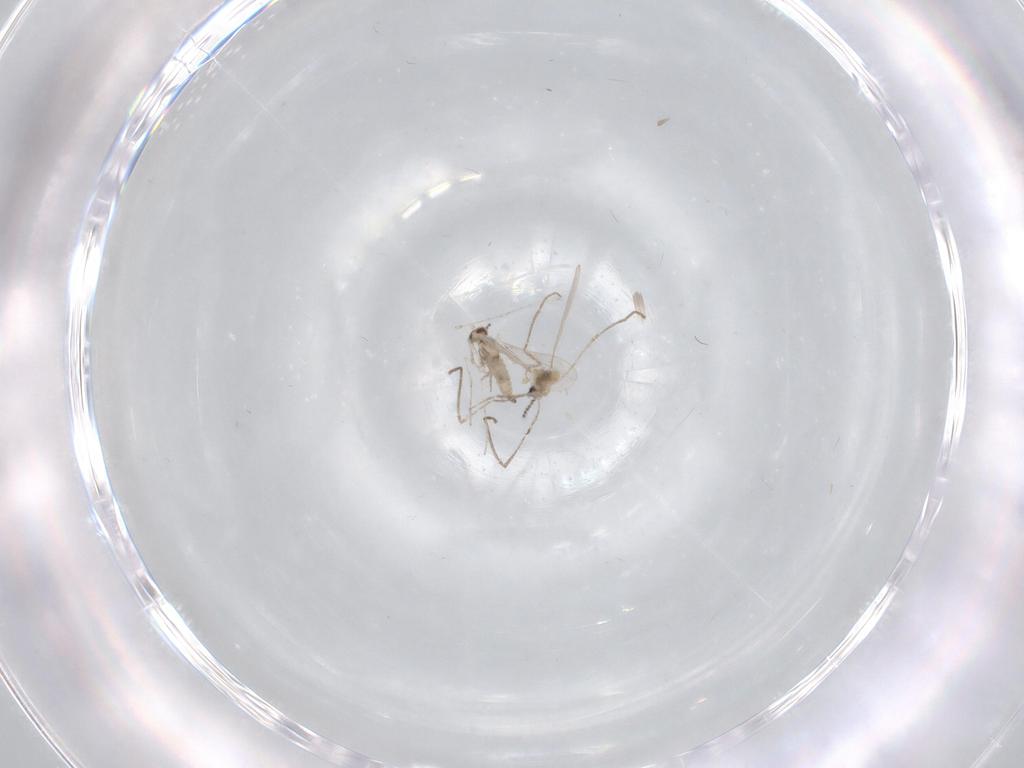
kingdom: Animalia
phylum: Arthropoda
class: Insecta
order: Diptera
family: Cecidomyiidae
